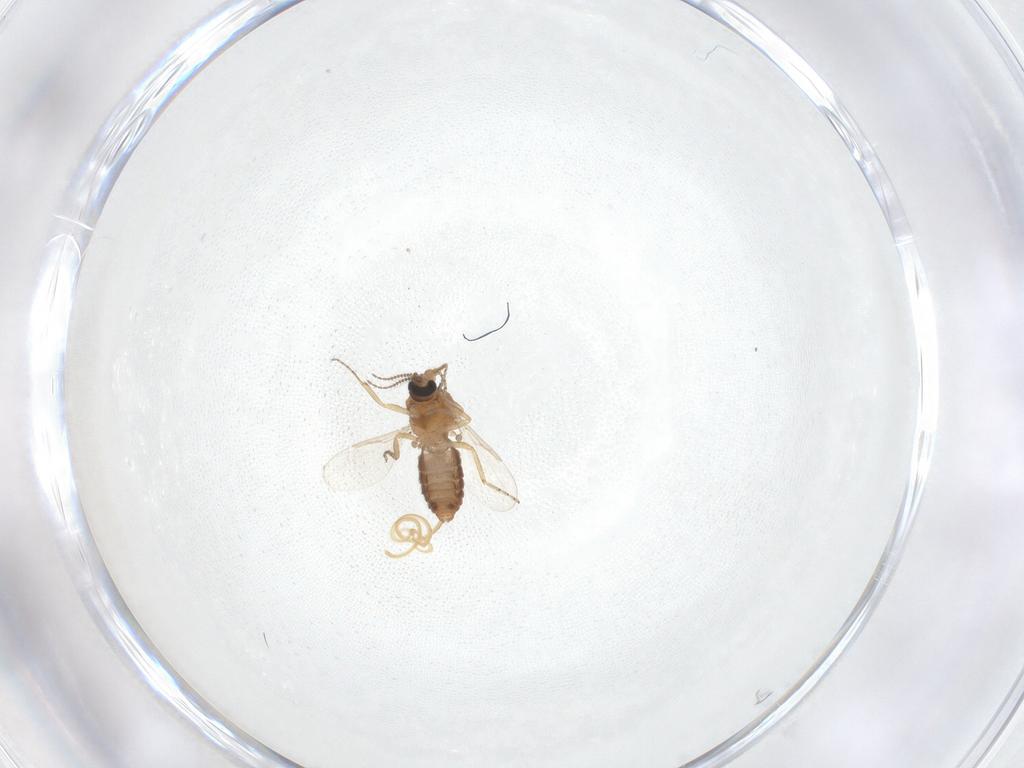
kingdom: Animalia
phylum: Arthropoda
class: Insecta
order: Diptera
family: Ceratopogonidae
